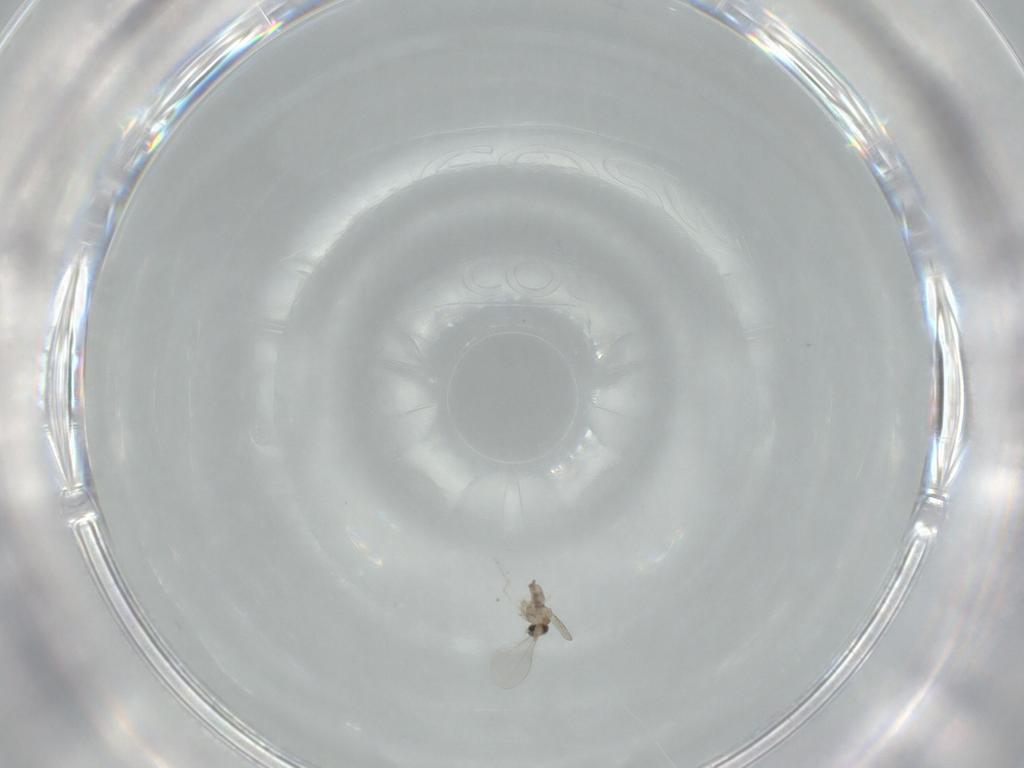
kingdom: Animalia
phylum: Arthropoda
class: Insecta
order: Diptera
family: Cecidomyiidae
